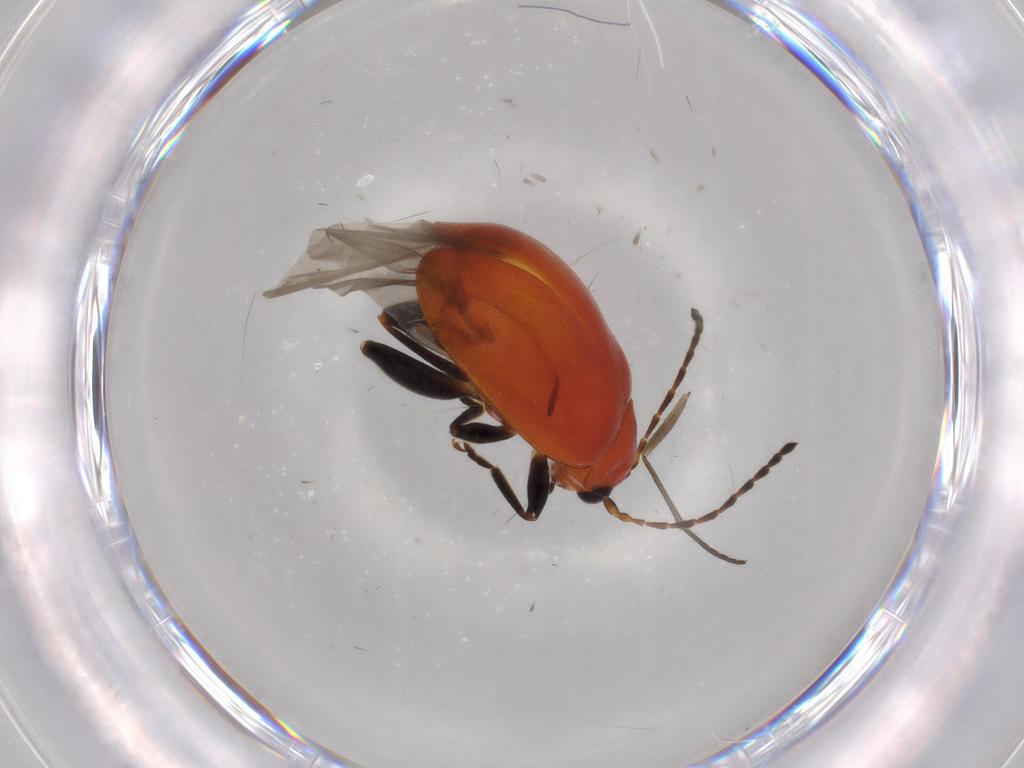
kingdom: Animalia
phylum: Arthropoda
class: Insecta
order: Coleoptera
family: Chrysomelidae
